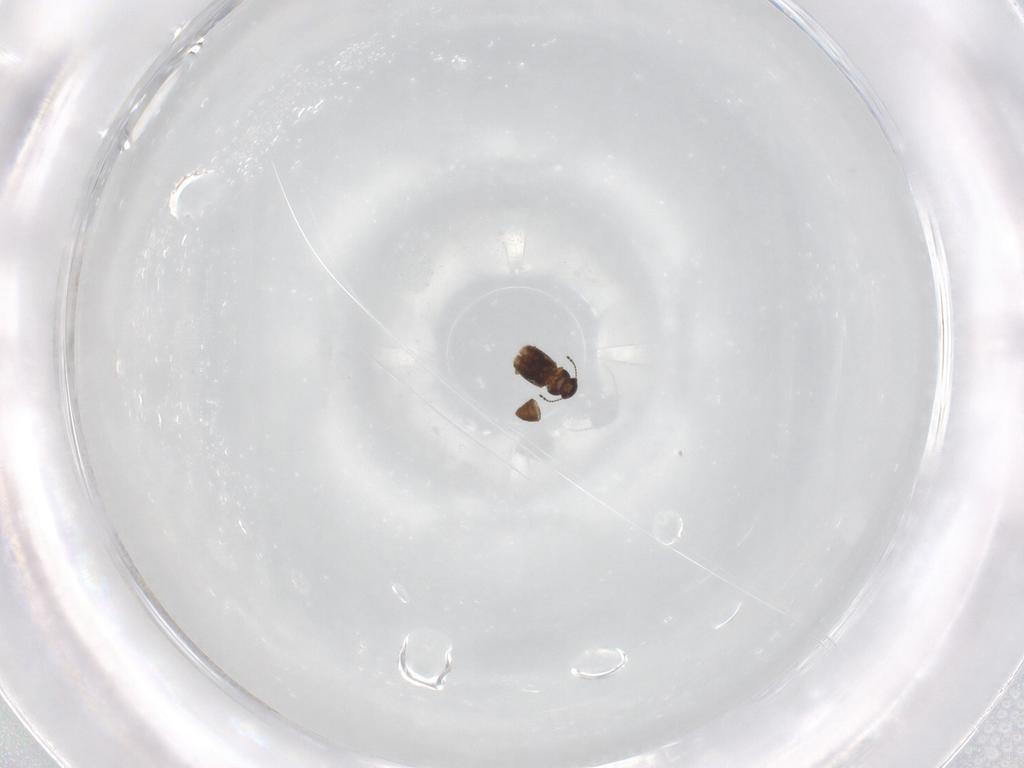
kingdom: Animalia
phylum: Arthropoda
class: Insecta
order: Coleoptera
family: Ptiliidae
